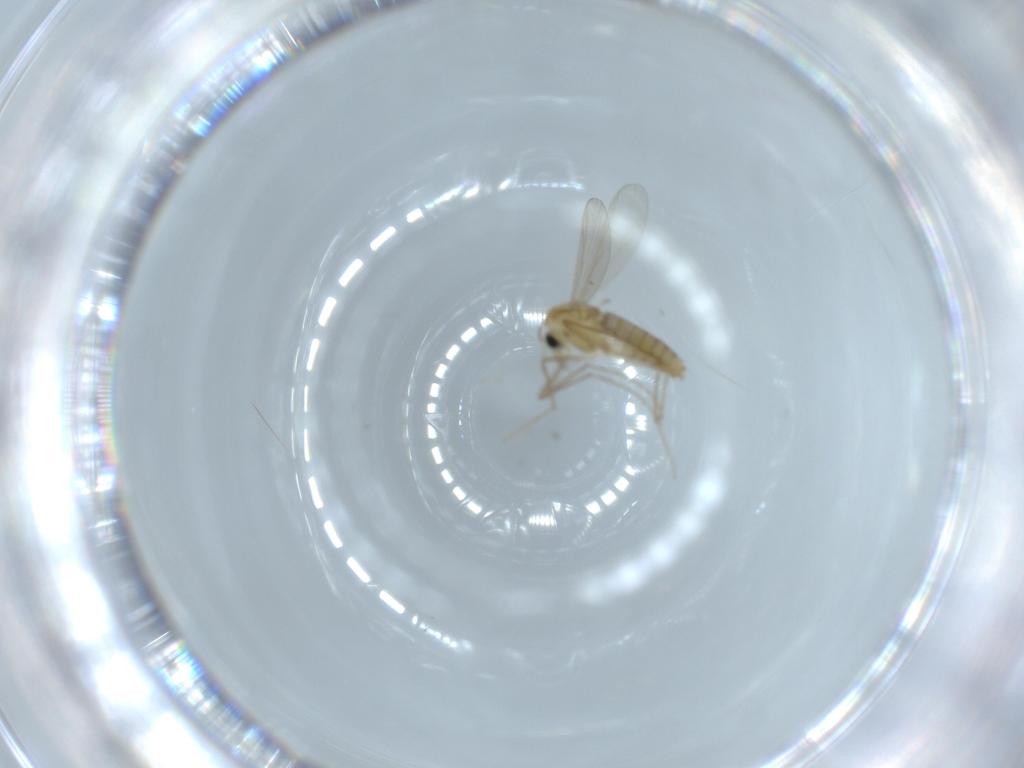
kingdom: Animalia
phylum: Arthropoda
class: Insecta
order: Diptera
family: Chironomidae
